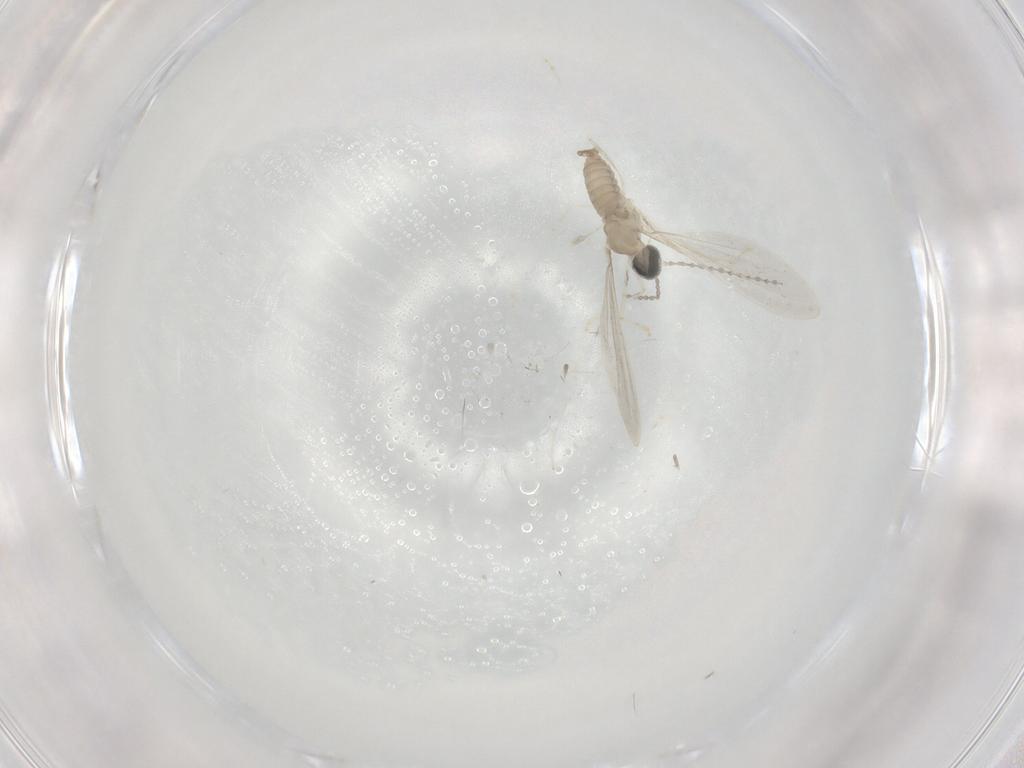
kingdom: Animalia
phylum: Arthropoda
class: Insecta
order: Diptera
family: Cecidomyiidae
